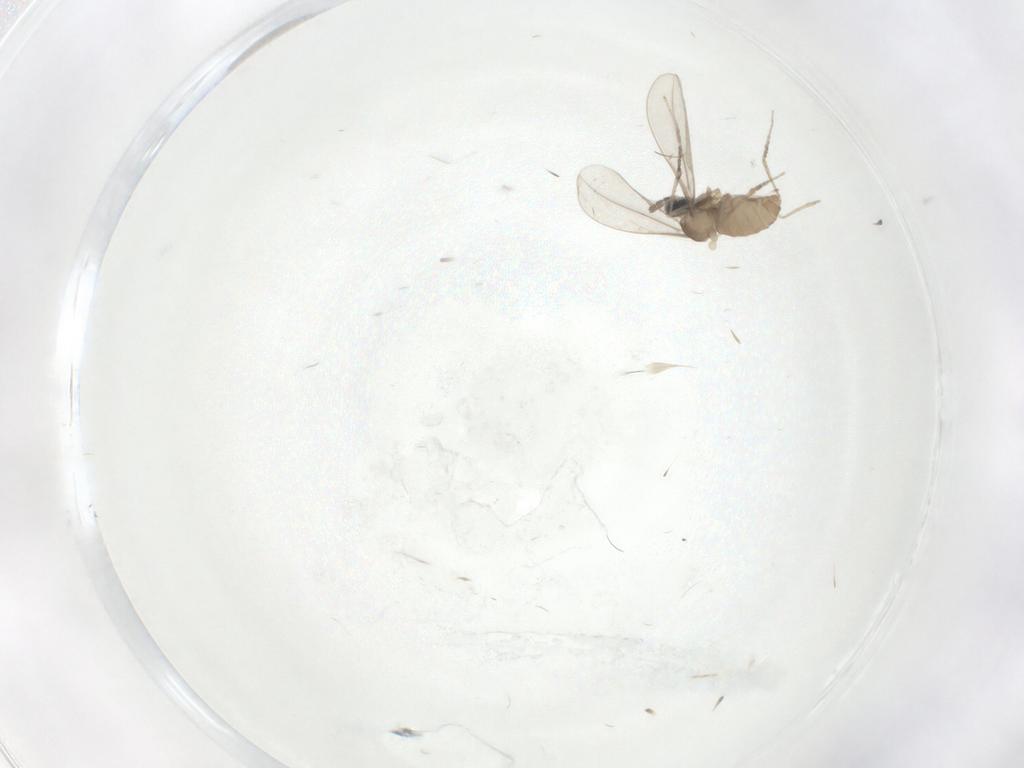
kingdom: Animalia
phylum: Arthropoda
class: Insecta
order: Diptera
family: Cecidomyiidae
